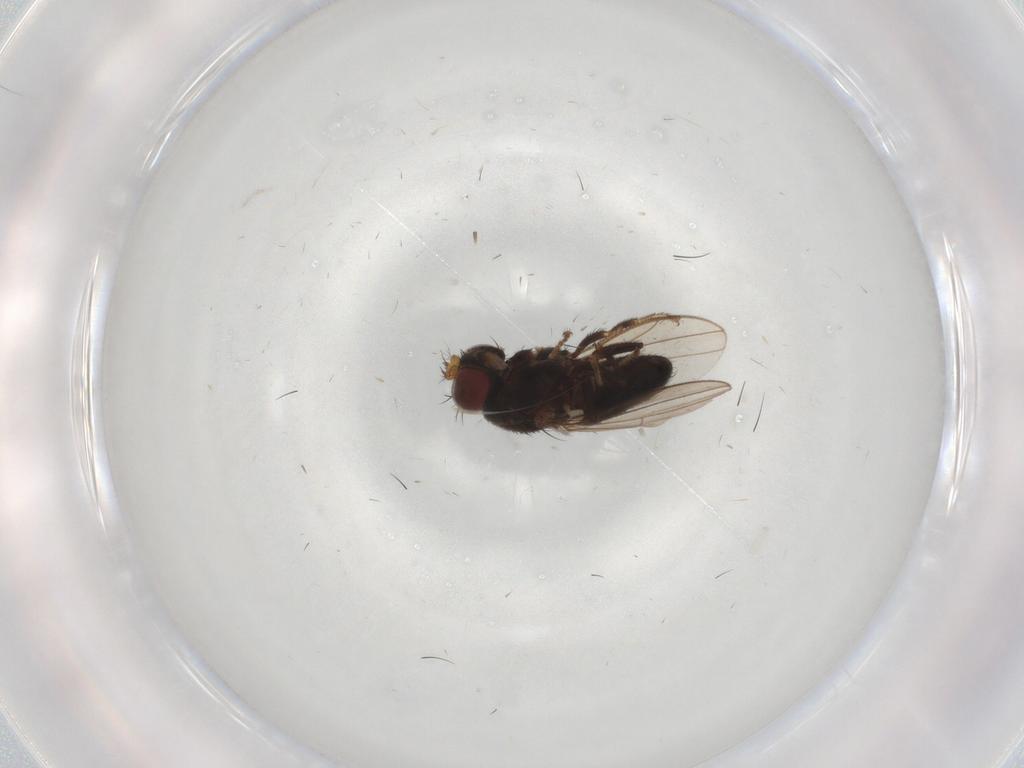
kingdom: Animalia
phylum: Arthropoda
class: Insecta
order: Diptera
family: Ephydridae
